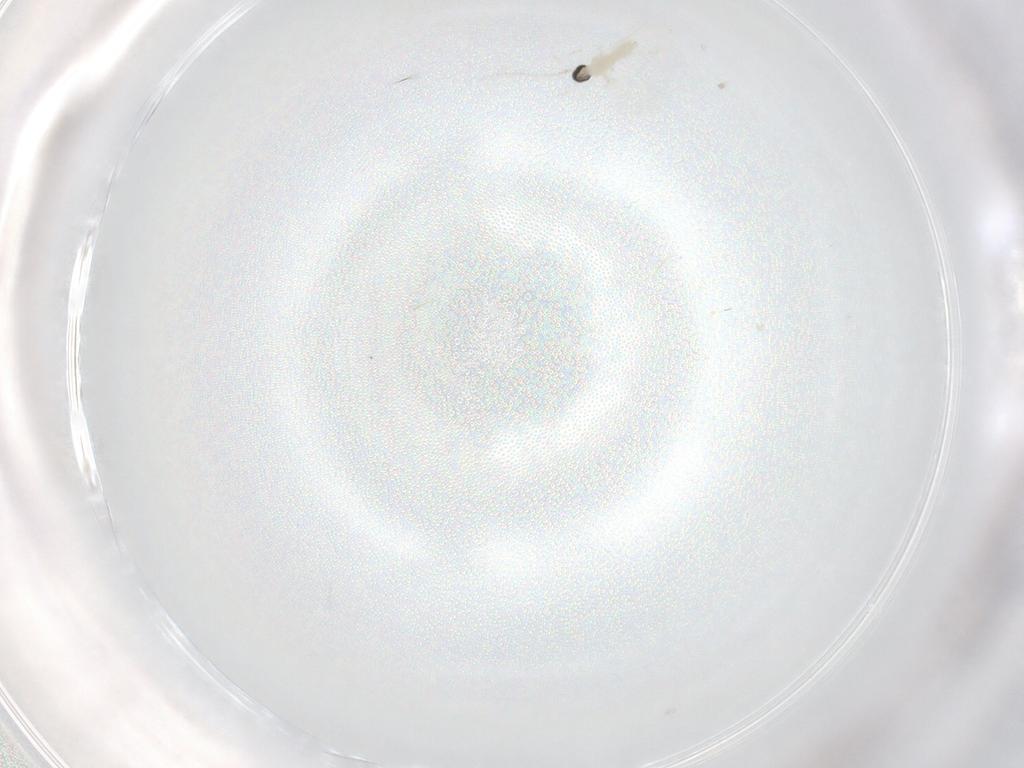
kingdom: Animalia
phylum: Arthropoda
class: Insecta
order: Diptera
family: Cecidomyiidae
